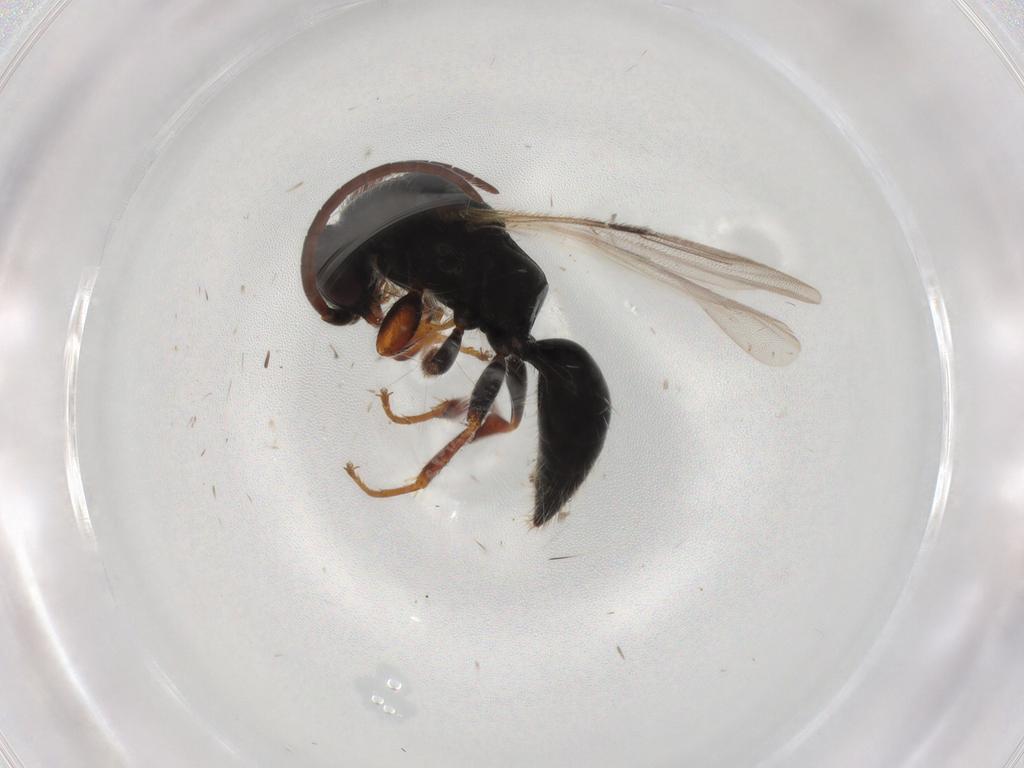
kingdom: Animalia
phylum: Arthropoda
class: Insecta
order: Hymenoptera
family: Bethylidae
